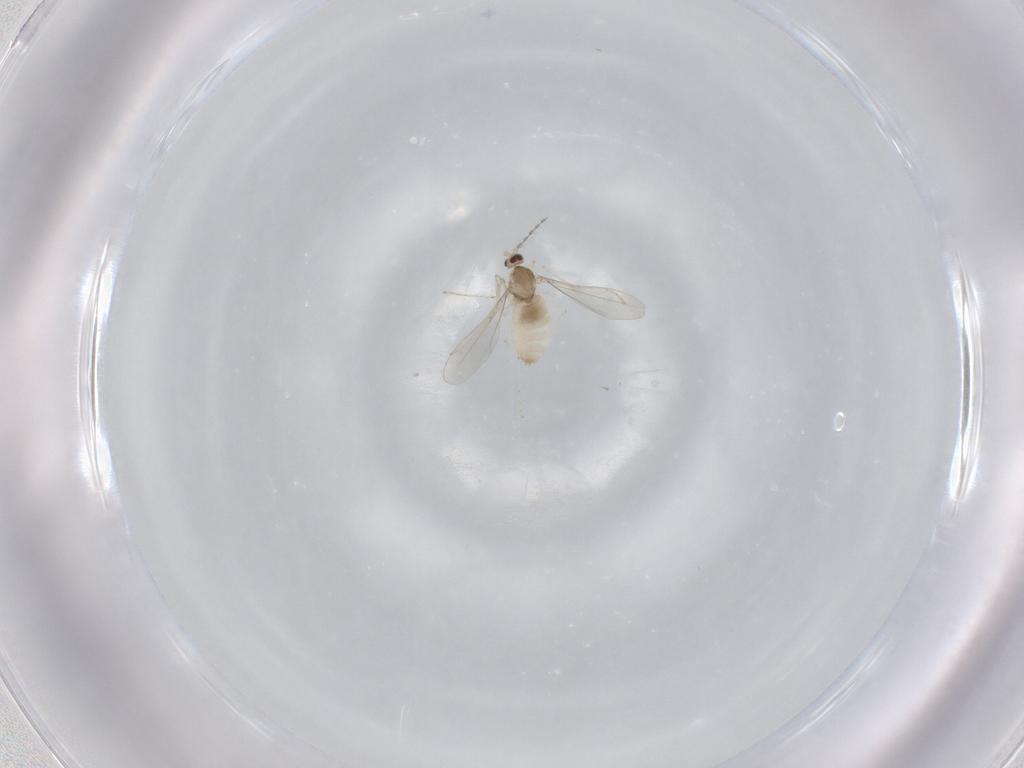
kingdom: Animalia
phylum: Arthropoda
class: Insecta
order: Diptera
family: Cecidomyiidae
